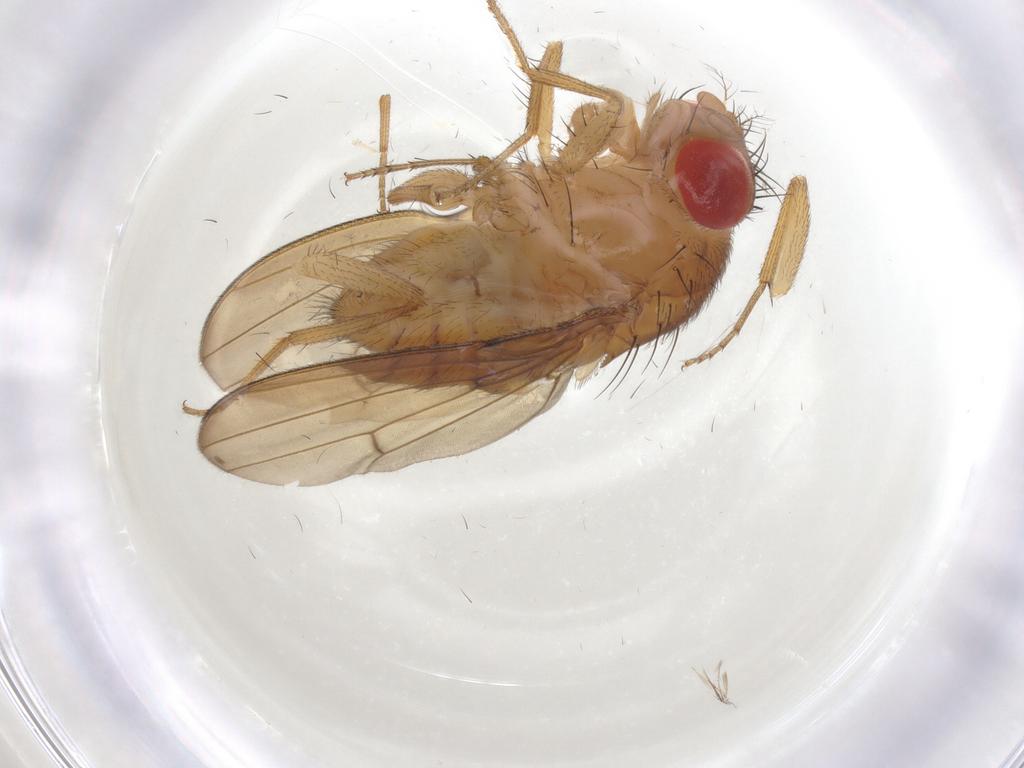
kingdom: Animalia
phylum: Arthropoda
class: Insecta
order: Diptera
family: Drosophilidae
